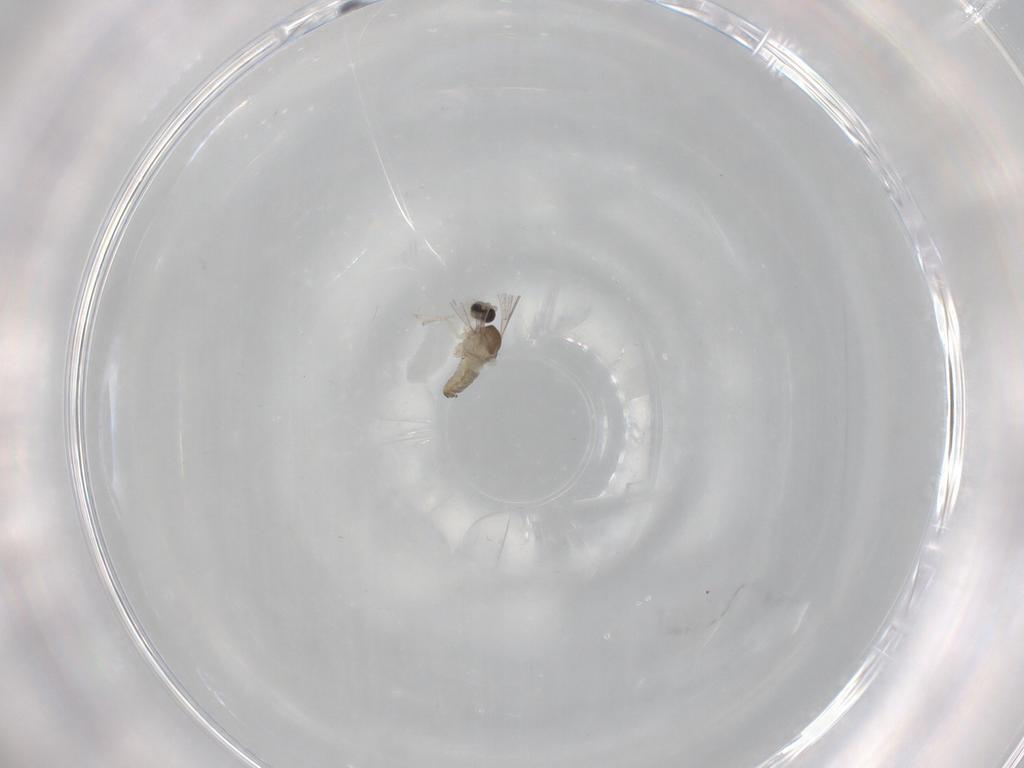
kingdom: Animalia
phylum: Arthropoda
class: Insecta
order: Diptera
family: Cecidomyiidae
